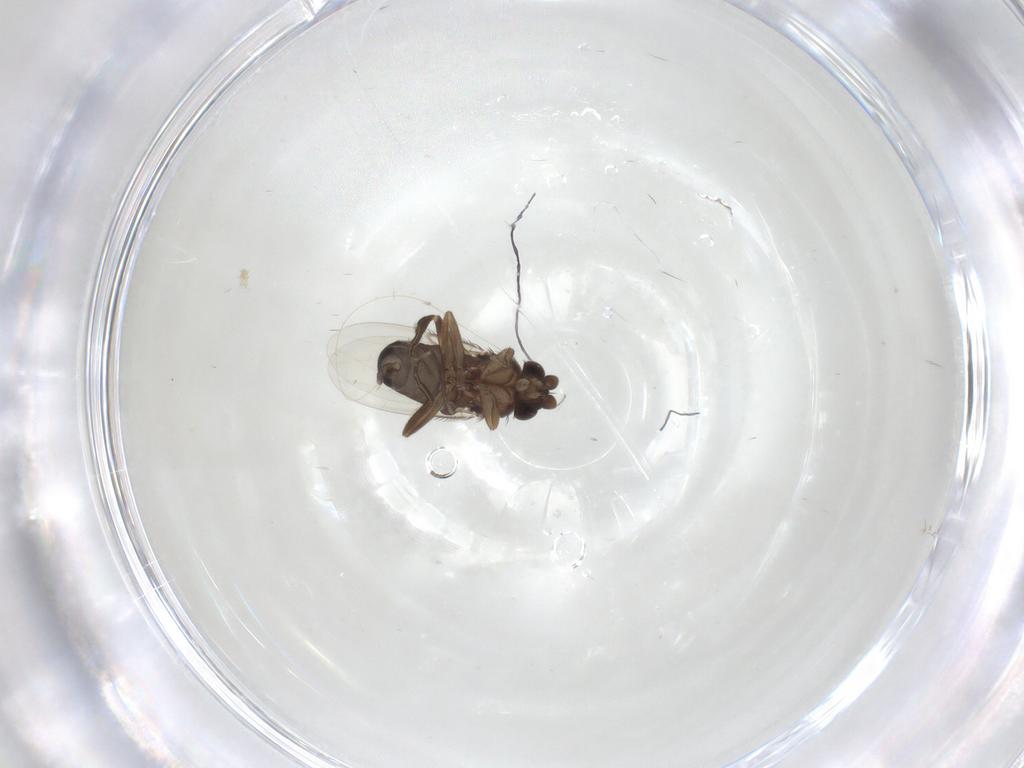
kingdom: Animalia
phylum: Arthropoda
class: Insecta
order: Diptera
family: Phoridae
